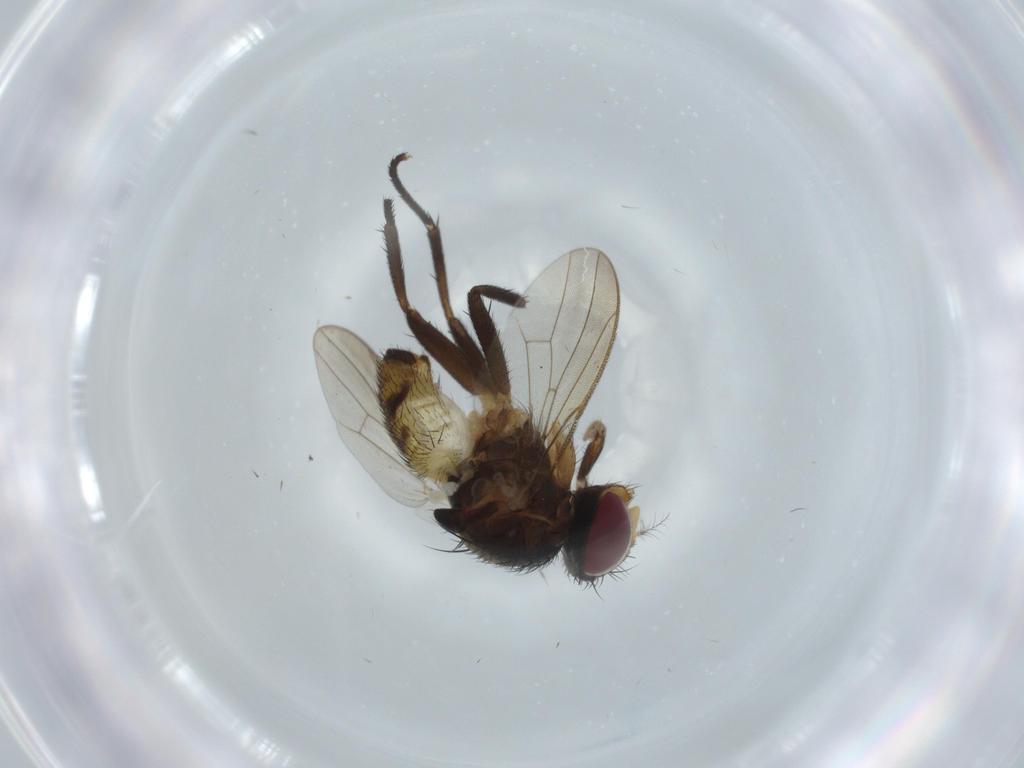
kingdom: Animalia
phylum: Arthropoda
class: Insecta
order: Diptera
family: Anthomyiidae
